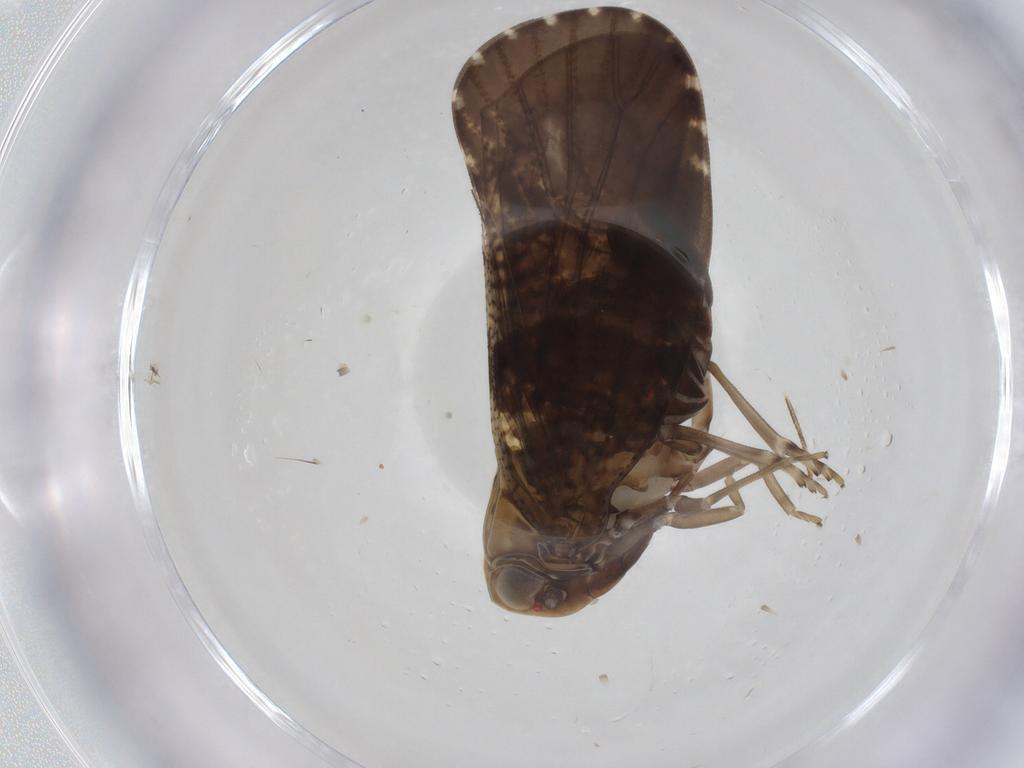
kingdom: Animalia
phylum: Arthropoda
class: Insecta
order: Hemiptera
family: Cixiidae
